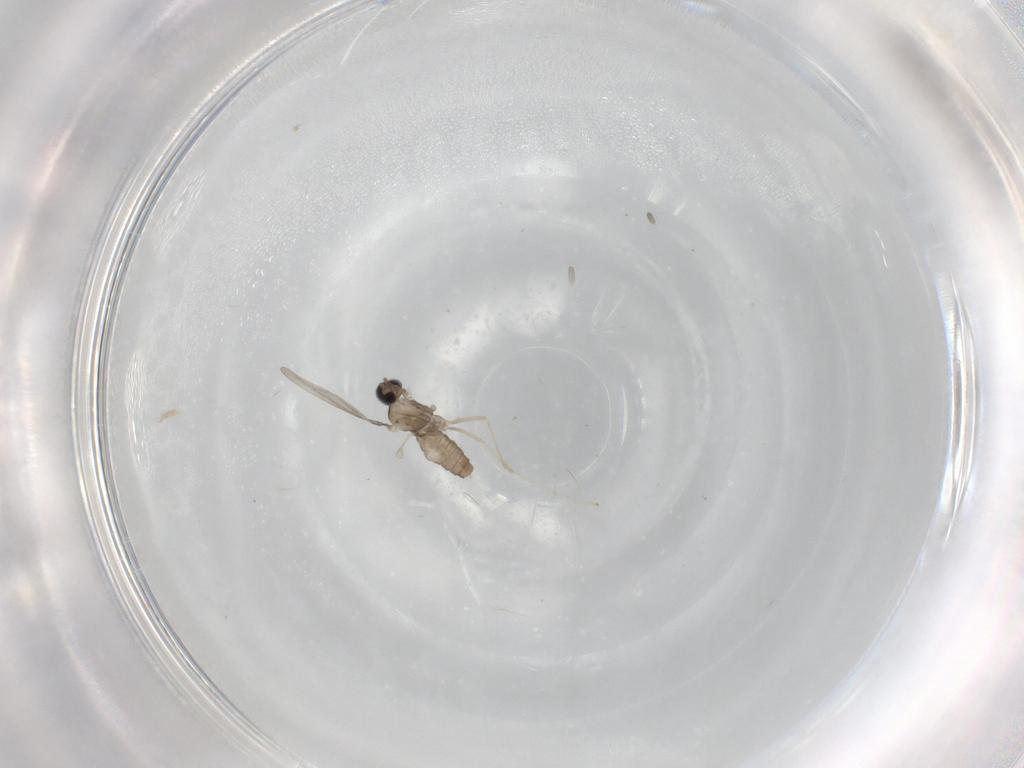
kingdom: Animalia
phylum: Arthropoda
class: Insecta
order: Diptera
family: Cecidomyiidae
